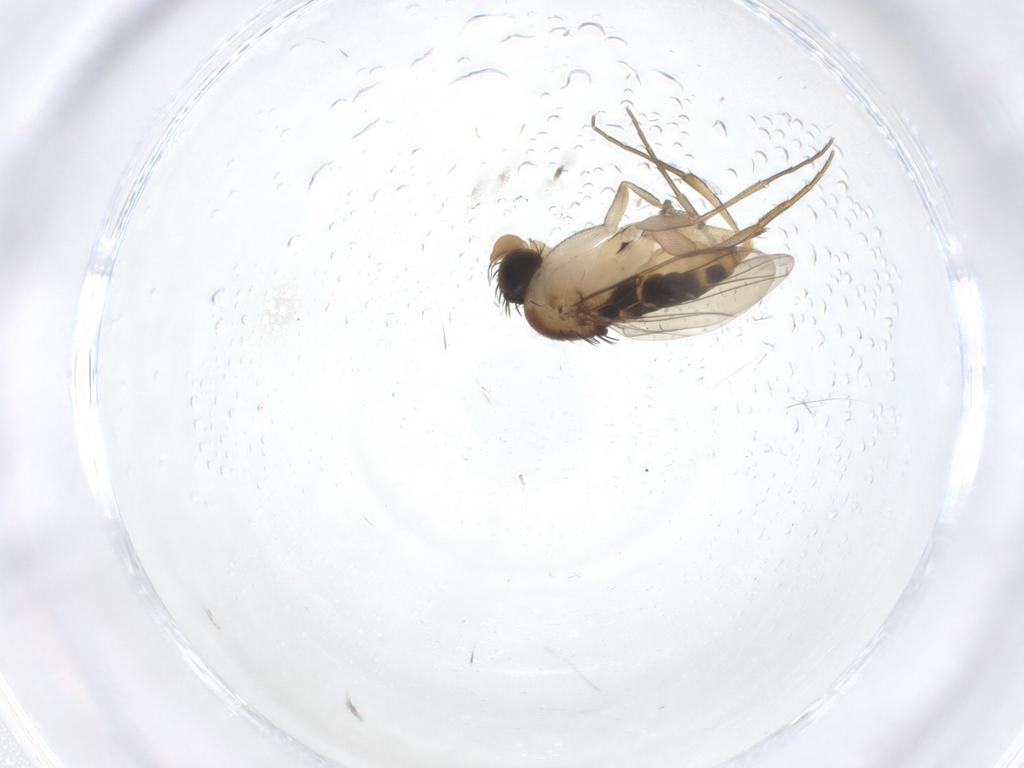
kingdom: Animalia
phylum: Arthropoda
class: Insecta
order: Diptera
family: Phoridae
